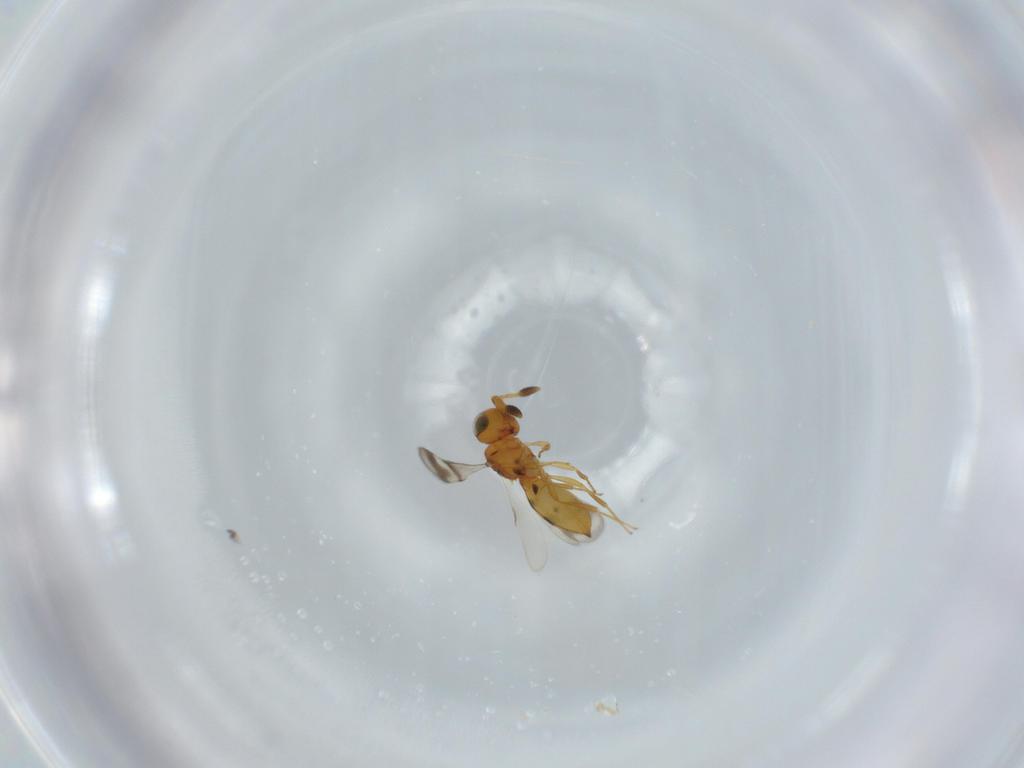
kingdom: Animalia
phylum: Arthropoda
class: Insecta
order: Hymenoptera
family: Scelionidae
